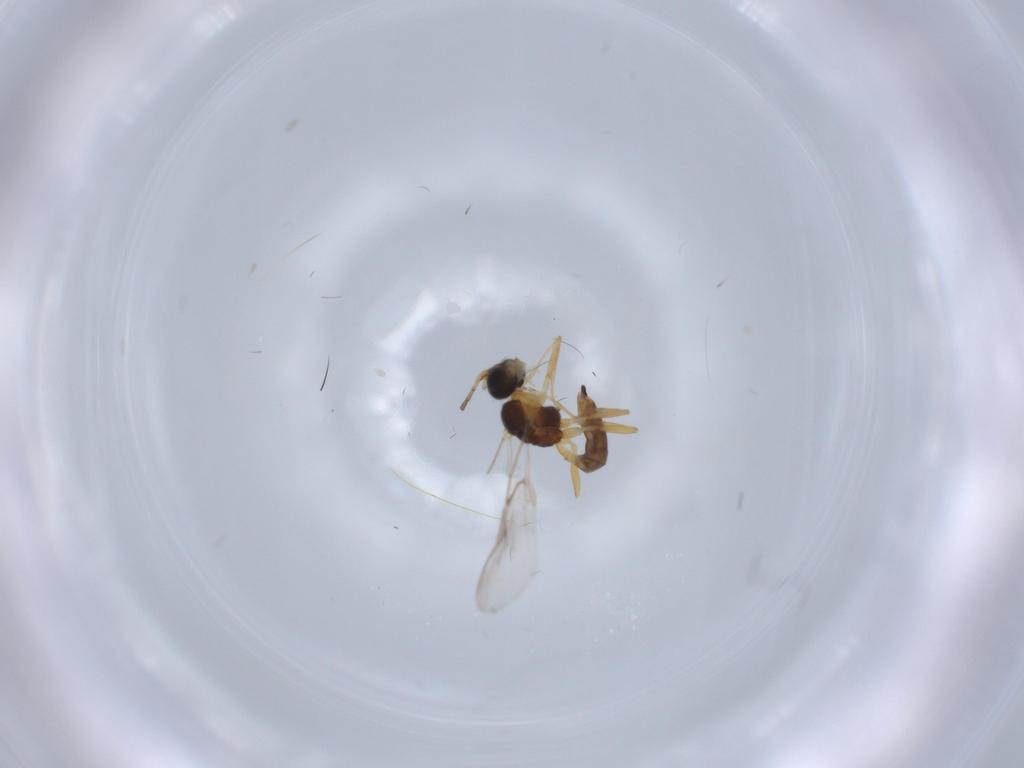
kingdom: Animalia
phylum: Arthropoda
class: Insecta
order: Hymenoptera
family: Braconidae
